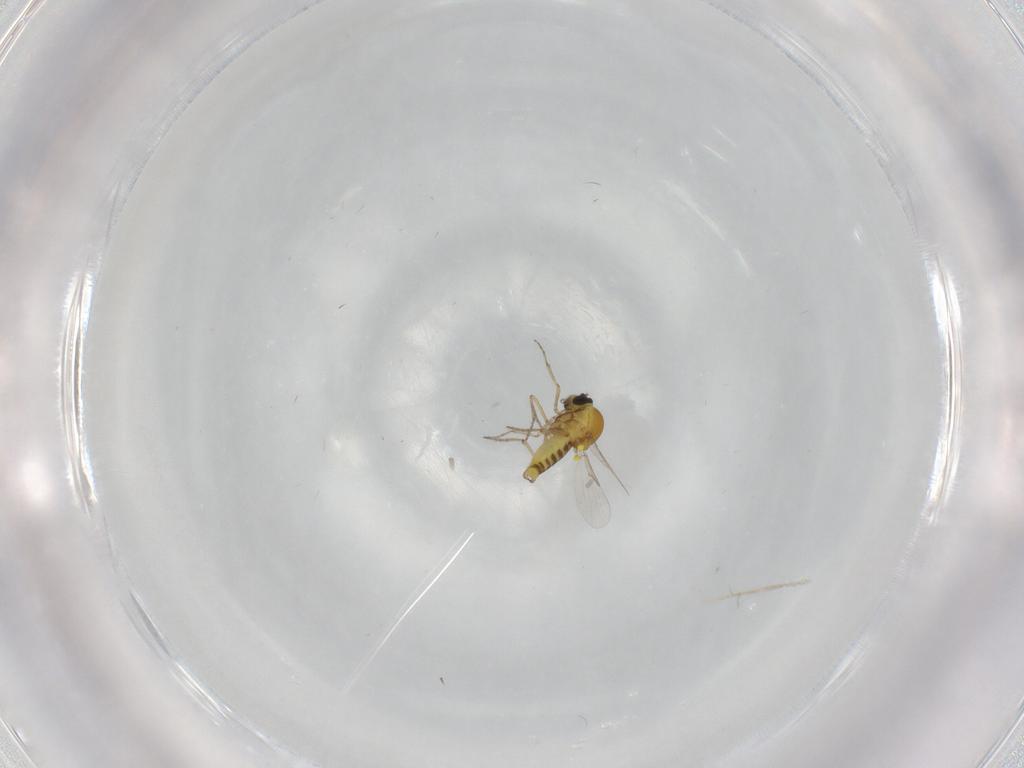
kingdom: Animalia
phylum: Arthropoda
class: Insecta
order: Diptera
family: Ceratopogonidae
